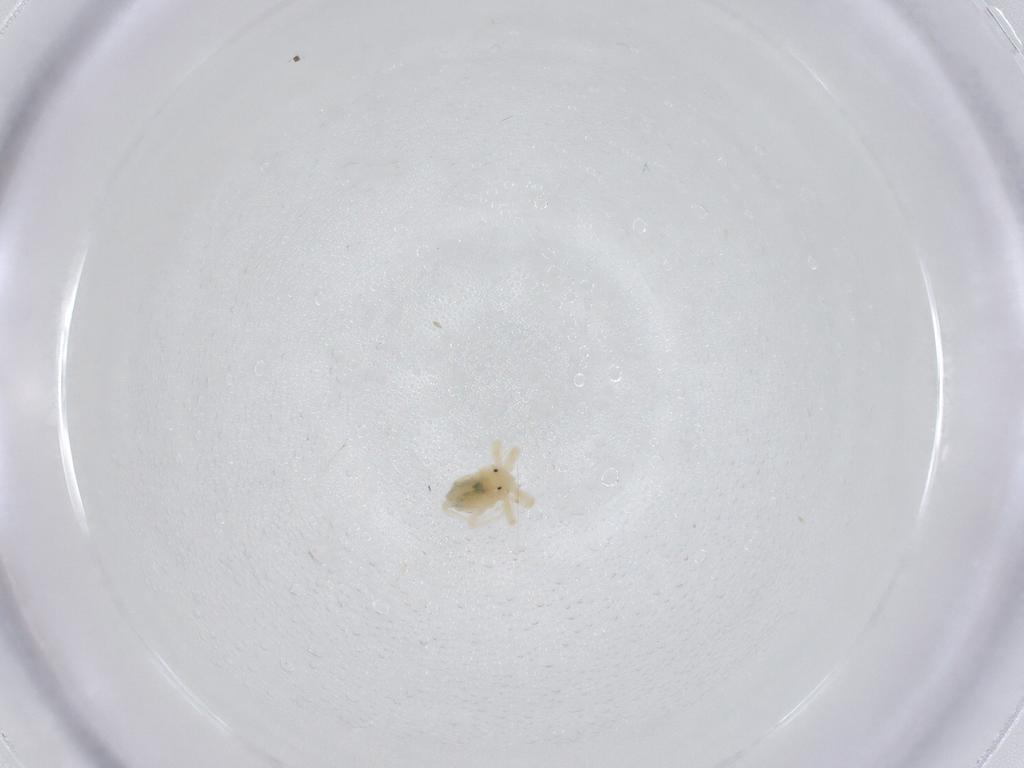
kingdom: Animalia
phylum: Arthropoda
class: Arachnida
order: Trombidiformes
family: Anystidae
